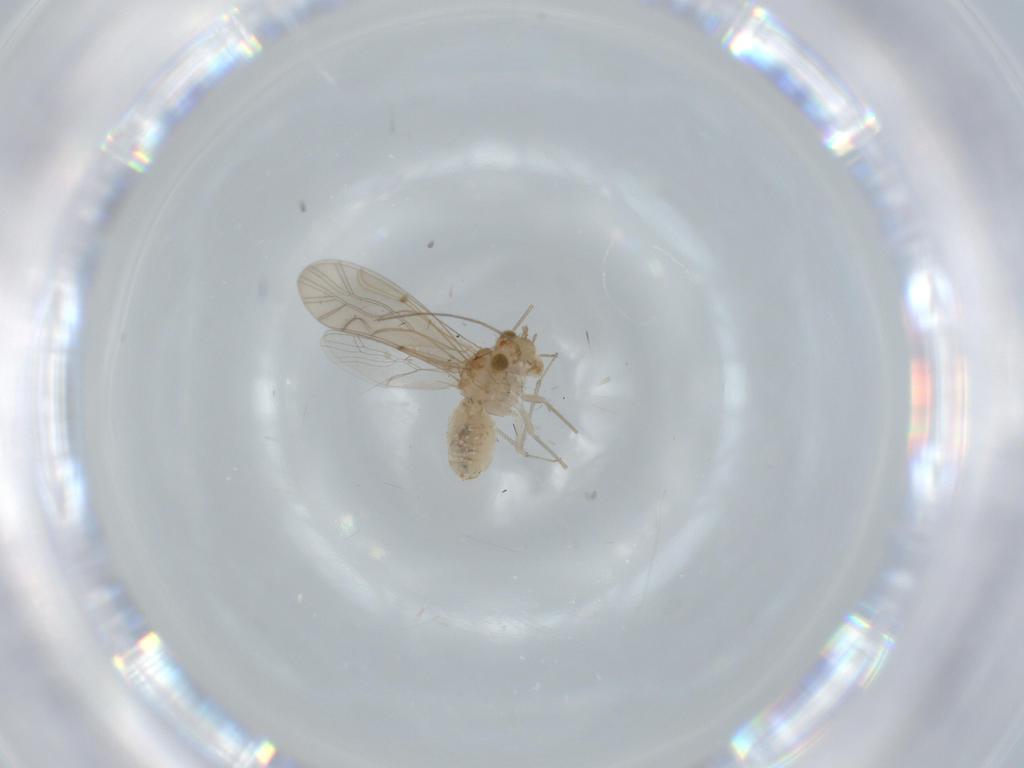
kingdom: Animalia
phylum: Arthropoda
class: Insecta
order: Psocodea
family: Lachesillidae
